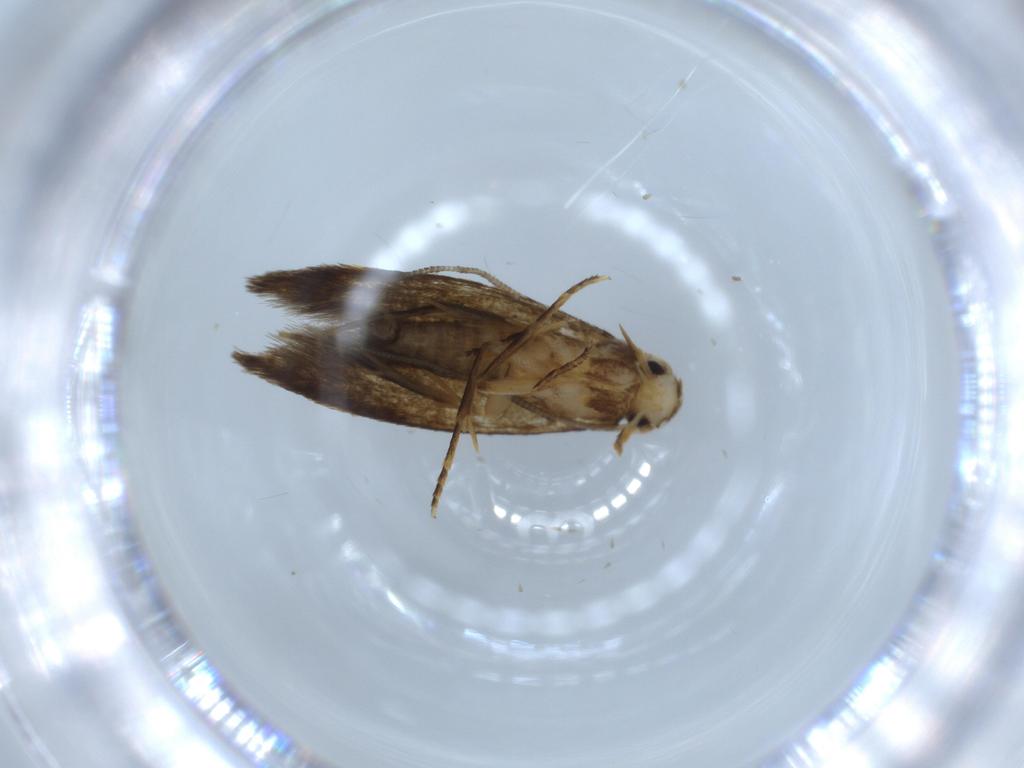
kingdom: Animalia
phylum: Arthropoda
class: Insecta
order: Lepidoptera
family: Tineidae
